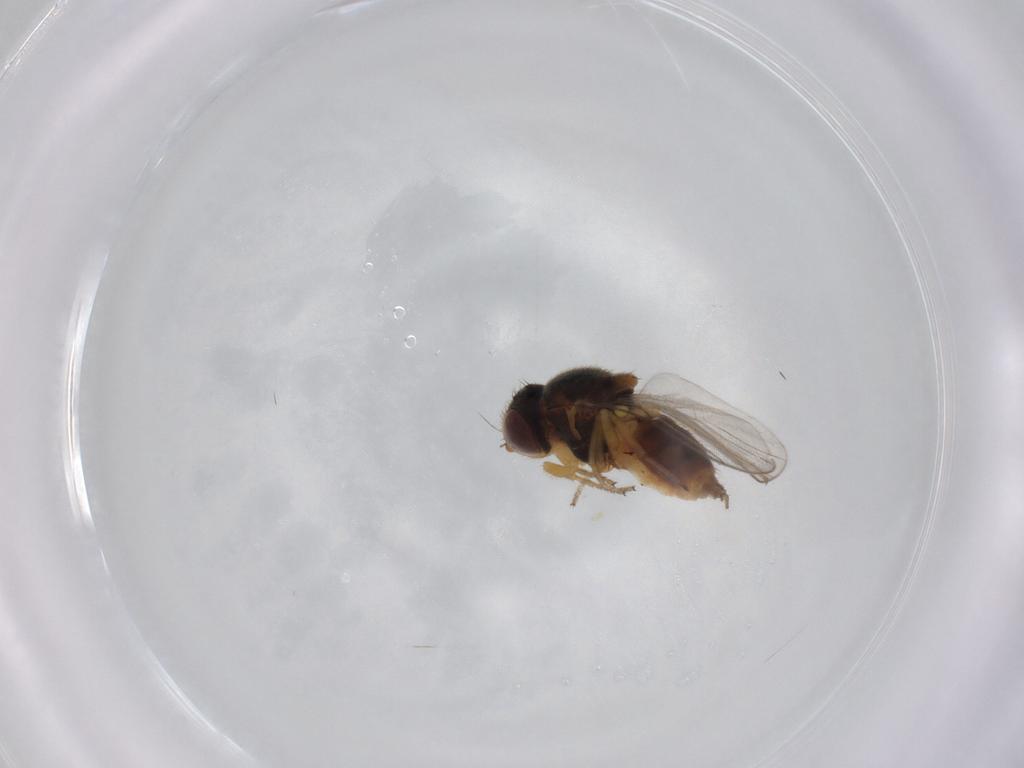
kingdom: Animalia
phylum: Arthropoda
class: Insecta
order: Diptera
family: Chloropidae
